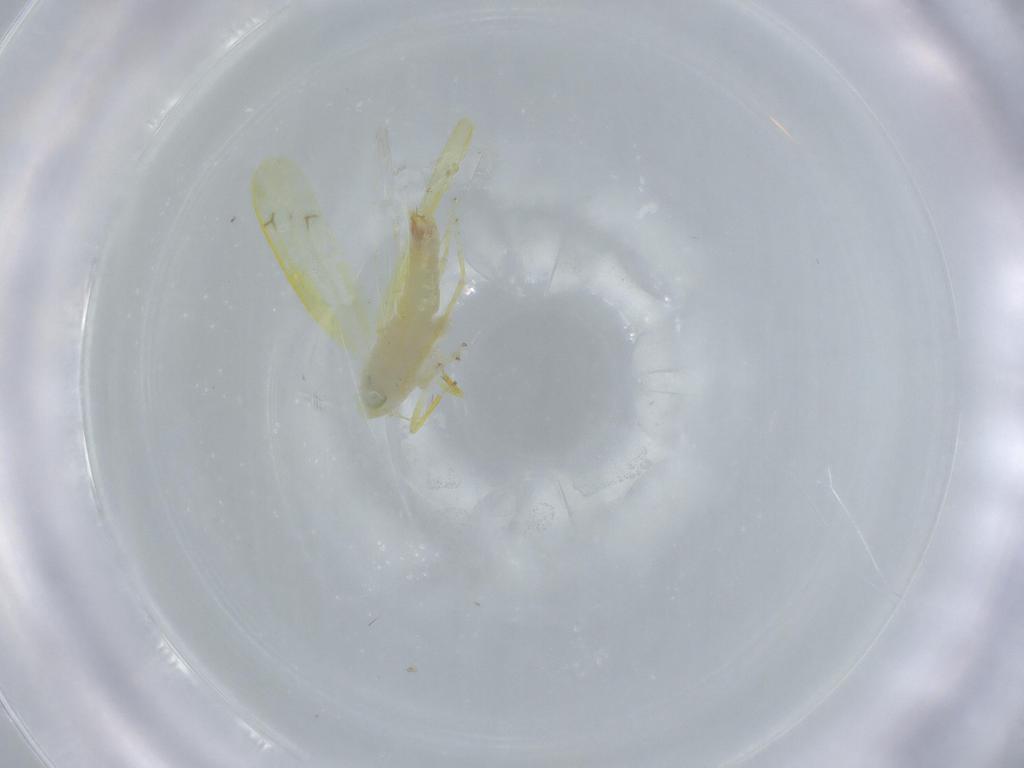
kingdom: Animalia
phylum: Arthropoda
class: Insecta
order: Hemiptera
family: Cicadellidae
